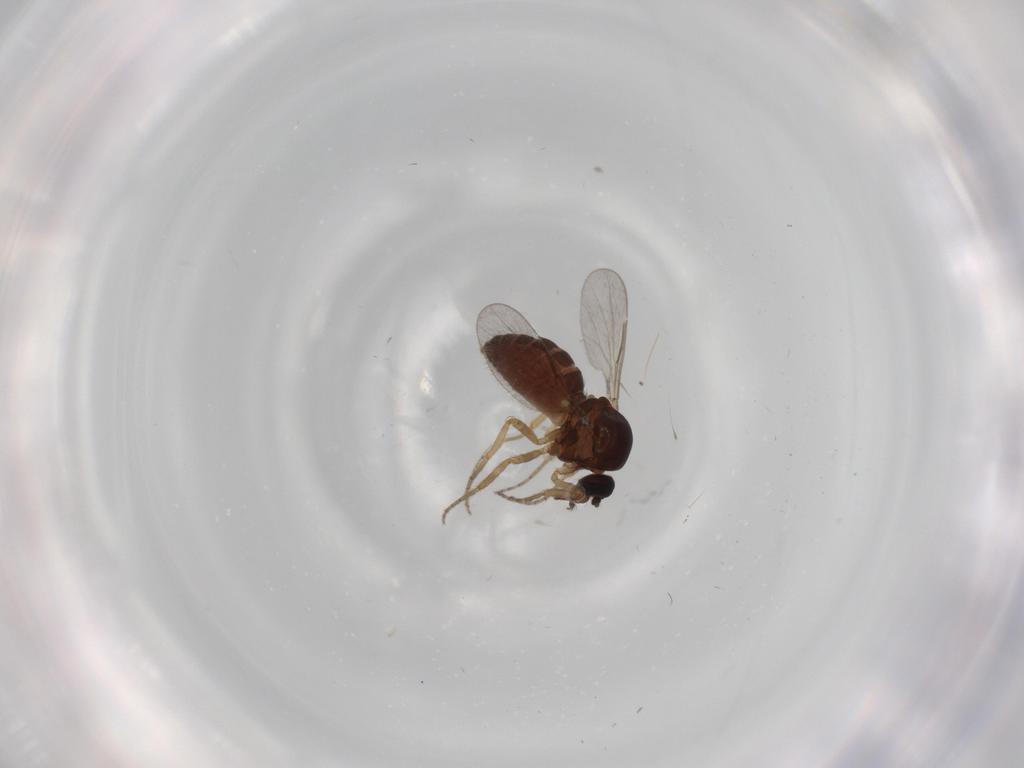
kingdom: Animalia
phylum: Arthropoda
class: Insecta
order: Diptera
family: Ceratopogonidae
